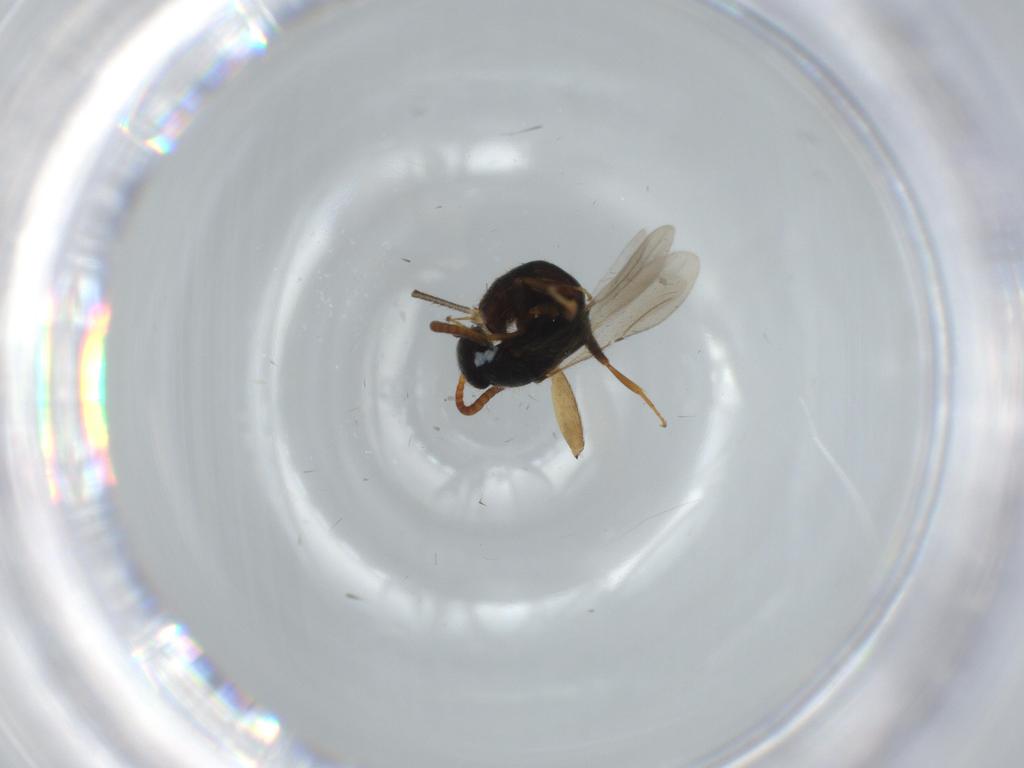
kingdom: Animalia
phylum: Arthropoda
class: Insecta
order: Hymenoptera
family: Bethylidae
